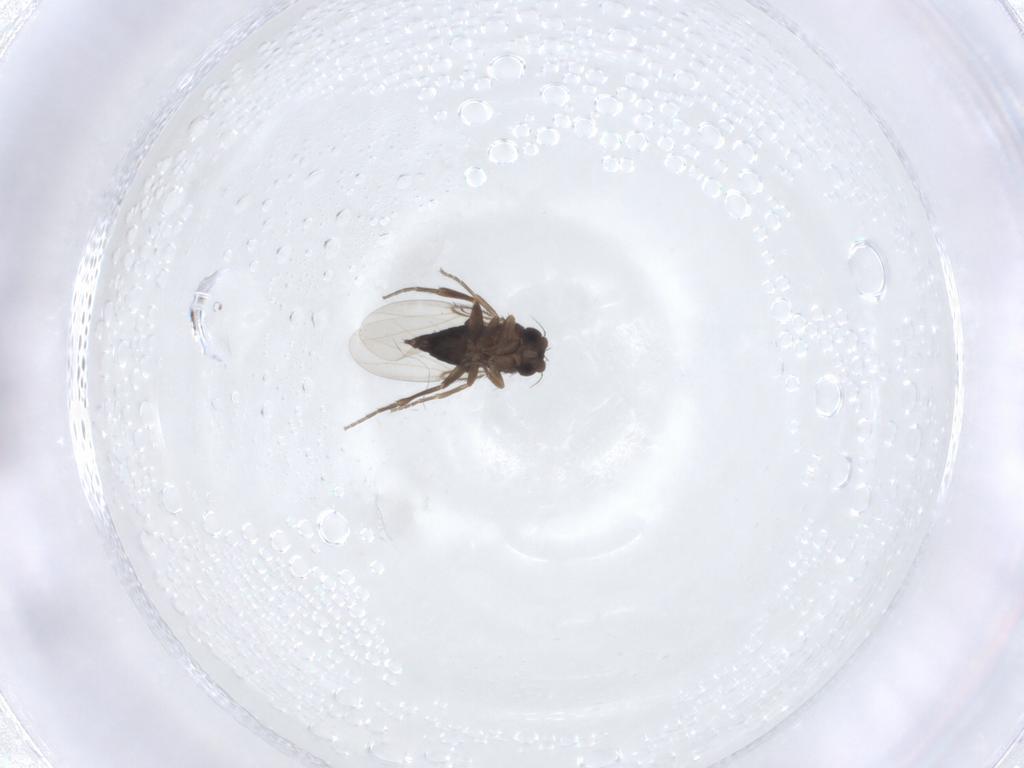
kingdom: Animalia
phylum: Arthropoda
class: Insecta
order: Diptera
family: Phoridae
